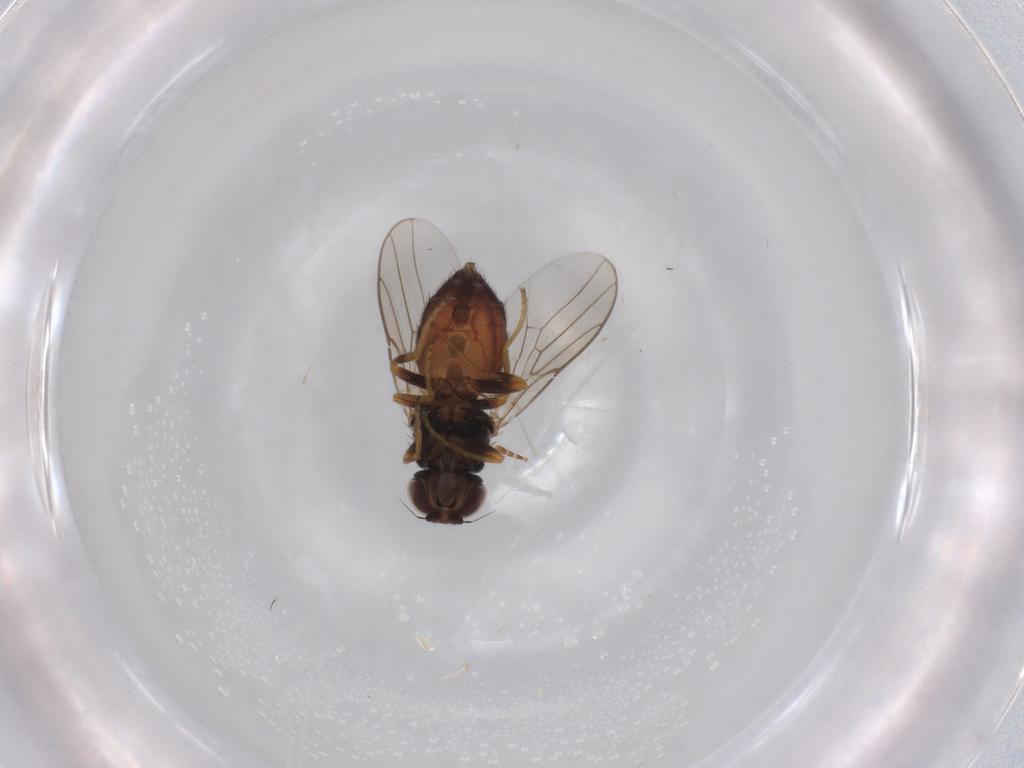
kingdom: Animalia
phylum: Arthropoda
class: Insecta
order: Diptera
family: Chloropidae
